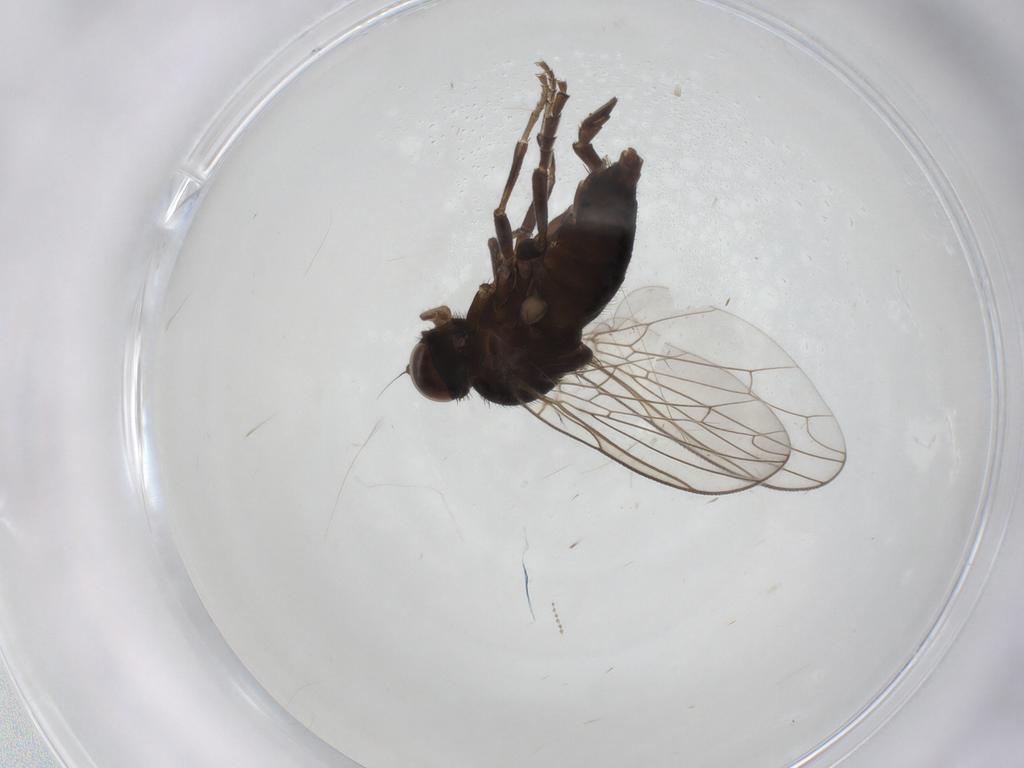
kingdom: Animalia
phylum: Arthropoda
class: Insecta
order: Diptera
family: Platypezidae
